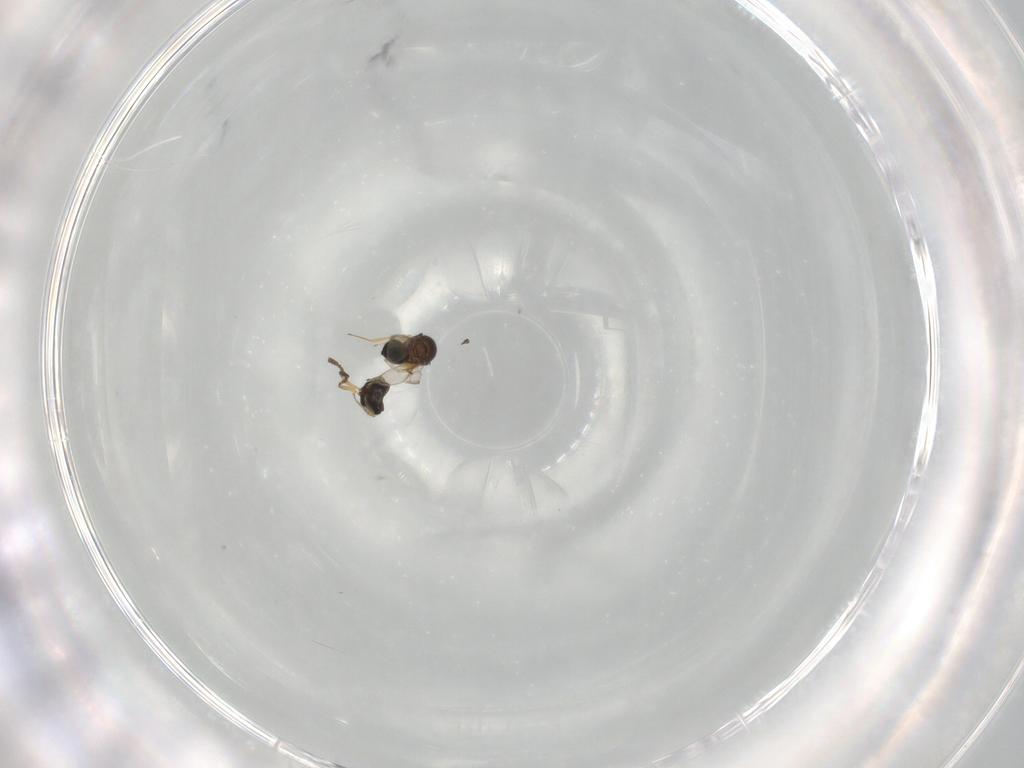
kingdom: Animalia
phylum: Arthropoda
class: Insecta
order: Hymenoptera
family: Scelionidae
